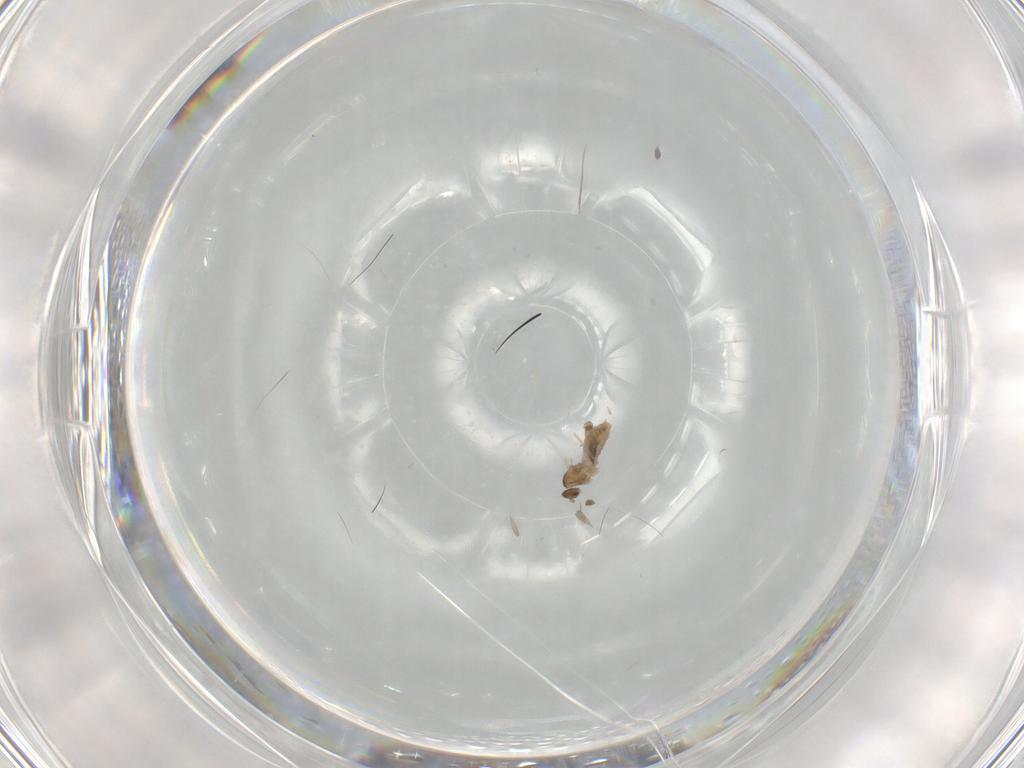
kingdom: Animalia
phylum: Arthropoda
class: Insecta
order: Diptera
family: Cecidomyiidae
